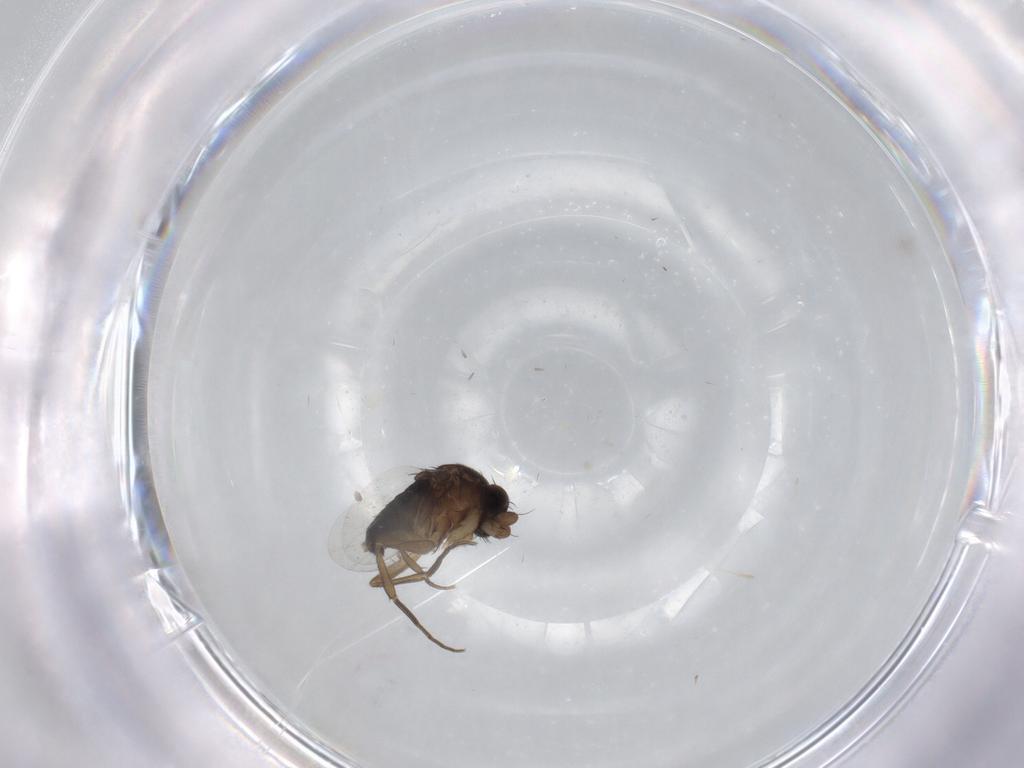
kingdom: Animalia
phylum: Arthropoda
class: Insecta
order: Diptera
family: Phoridae
